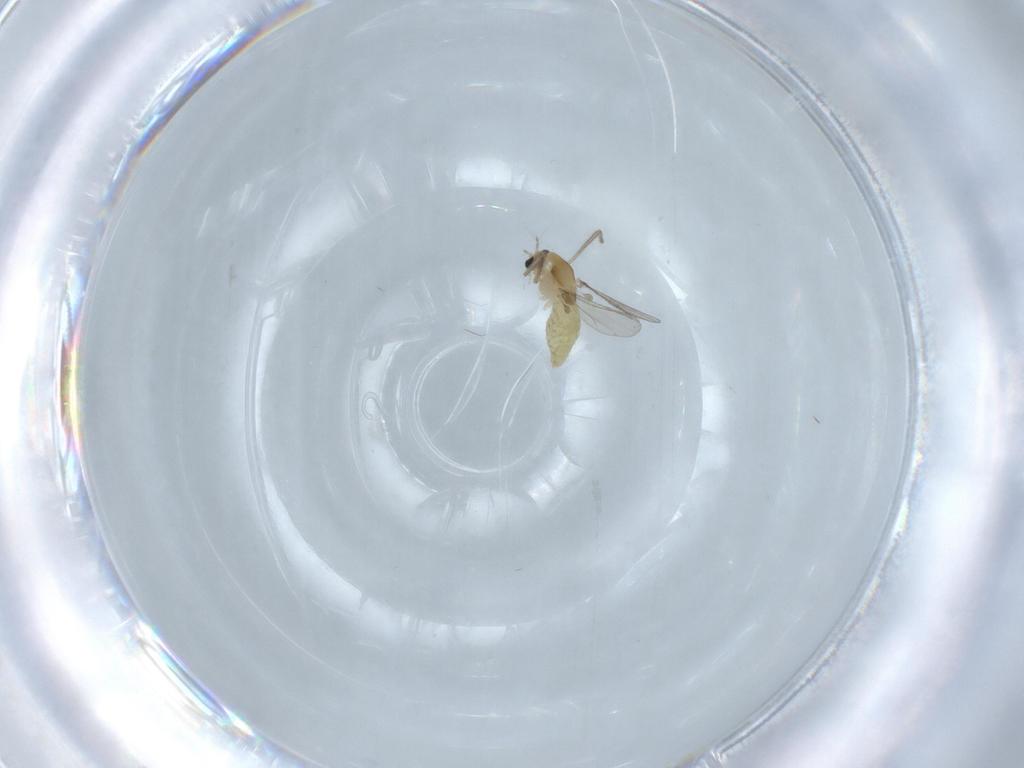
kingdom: Animalia
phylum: Arthropoda
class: Insecta
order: Diptera
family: Chironomidae
